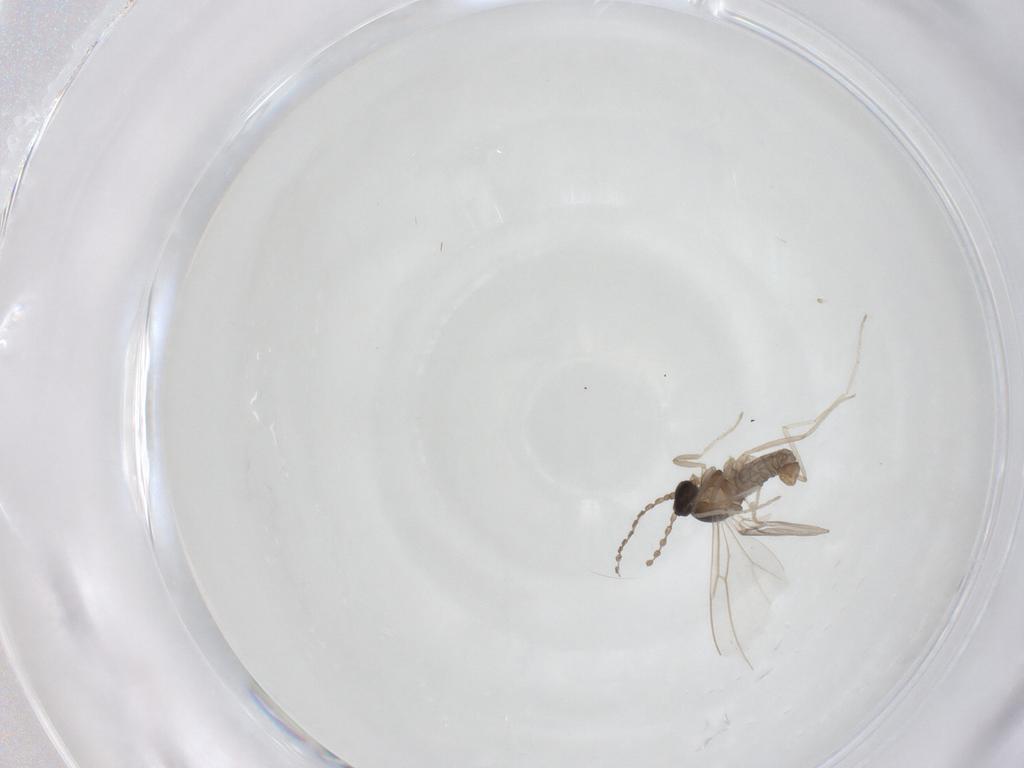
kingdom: Animalia
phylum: Arthropoda
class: Insecta
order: Diptera
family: Cecidomyiidae
